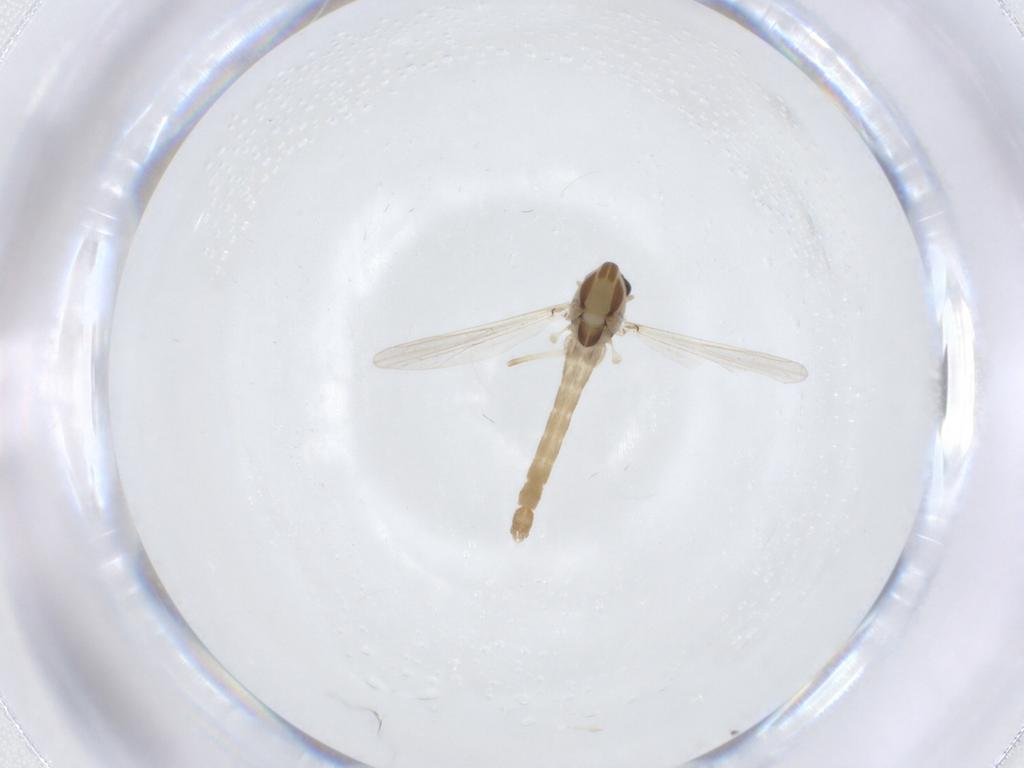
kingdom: Animalia
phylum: Arthropoda
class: Insecta
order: Diptera
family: Chironomidae
